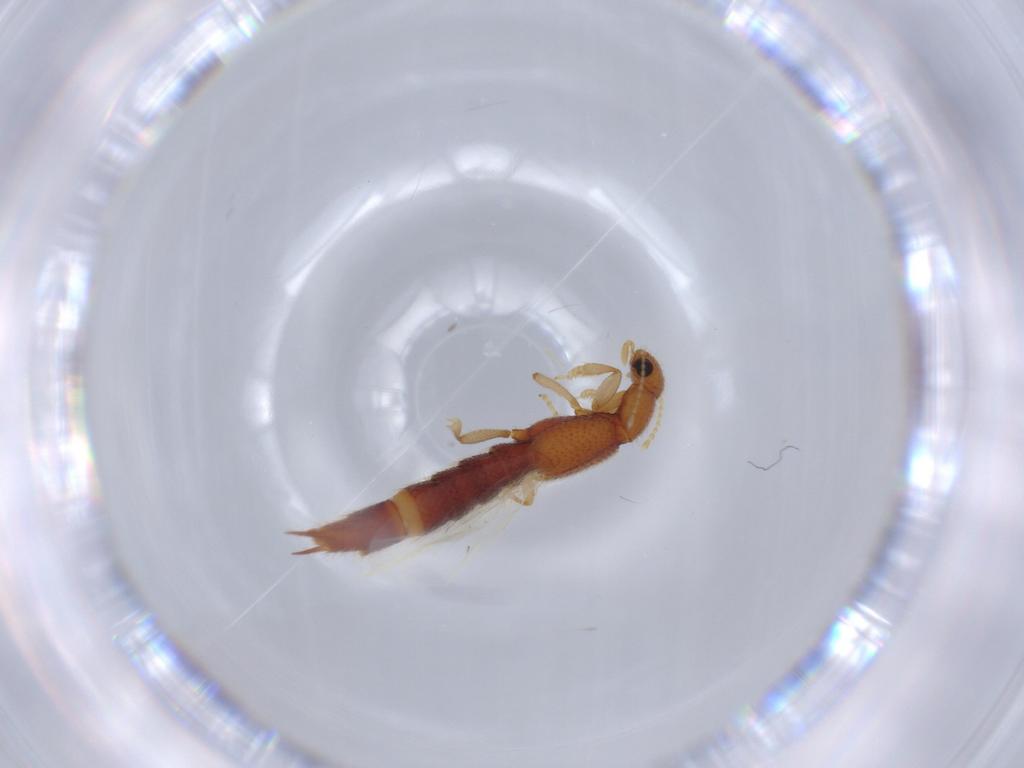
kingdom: Animalia
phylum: Arthropoda
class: Insecta
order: Coleoptera
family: Staphylinidae
